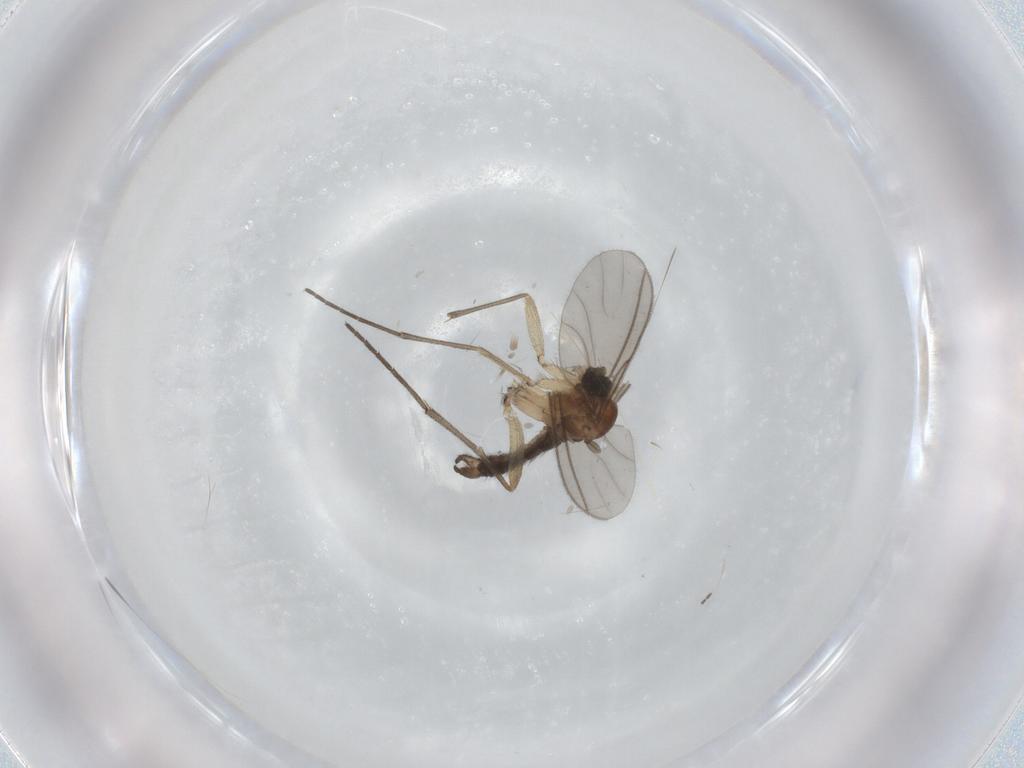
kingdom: Animalia
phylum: Arthropoda
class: Insecta
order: Diptera
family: Sciaridae
